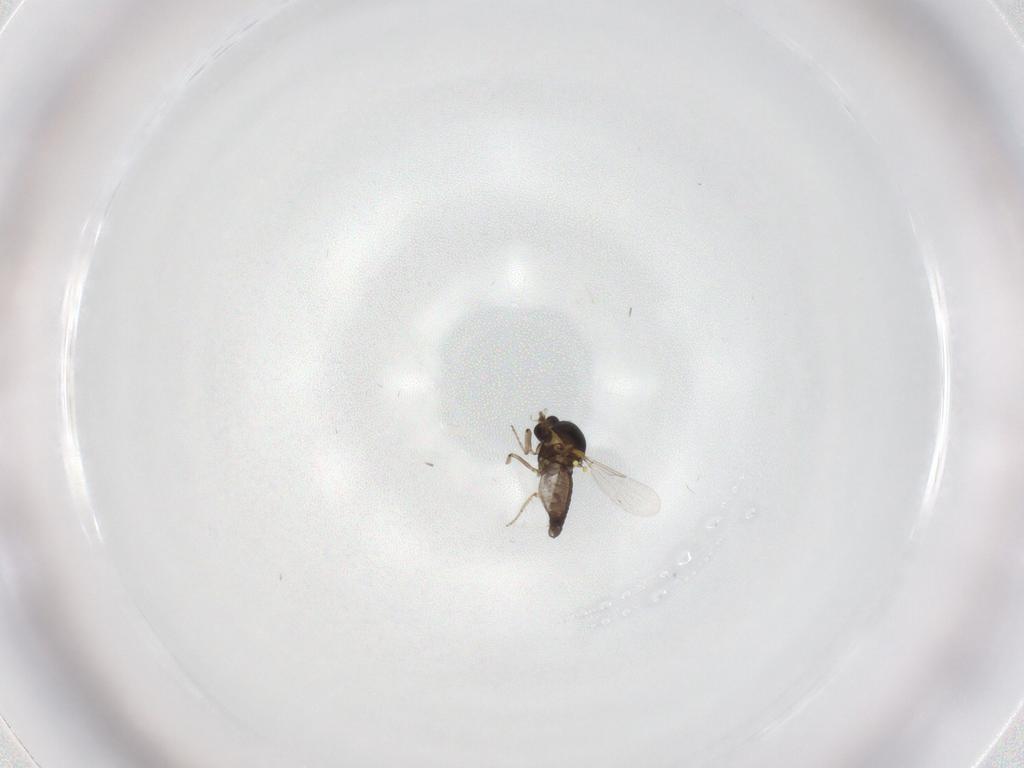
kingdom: Animalia
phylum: Arthropoda
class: Insecta
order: Diptera
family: Ceratopogonidae
